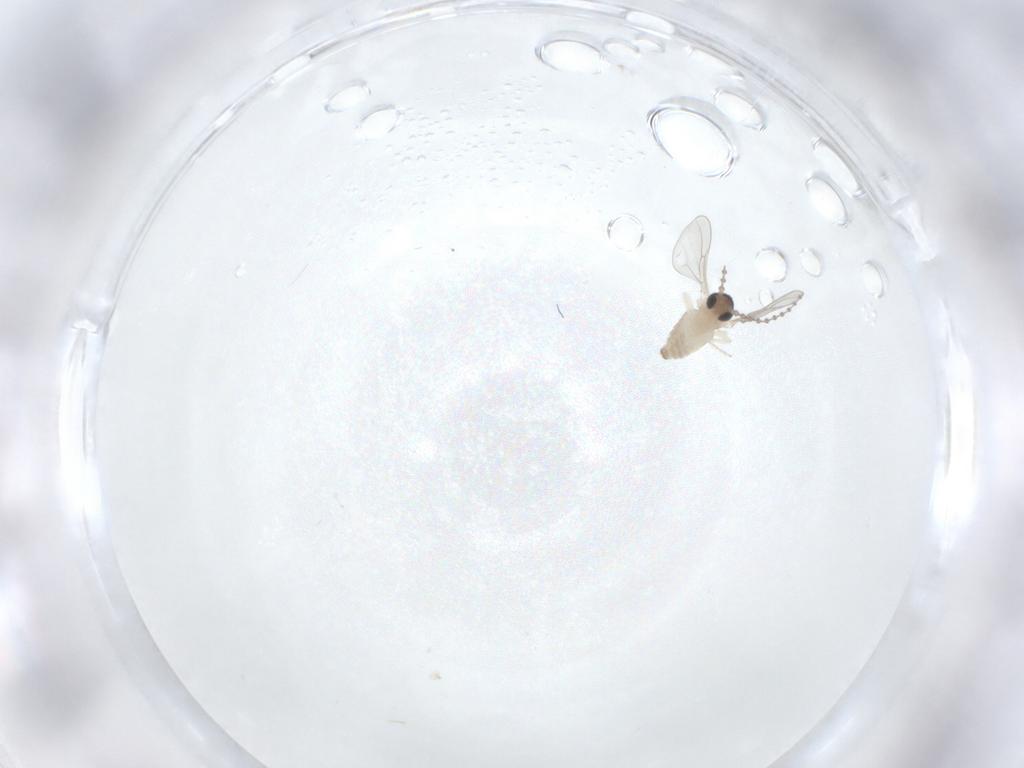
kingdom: Animalia
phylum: Arthropoda
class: Insecta
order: Diptera
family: Cecidomyiidae
